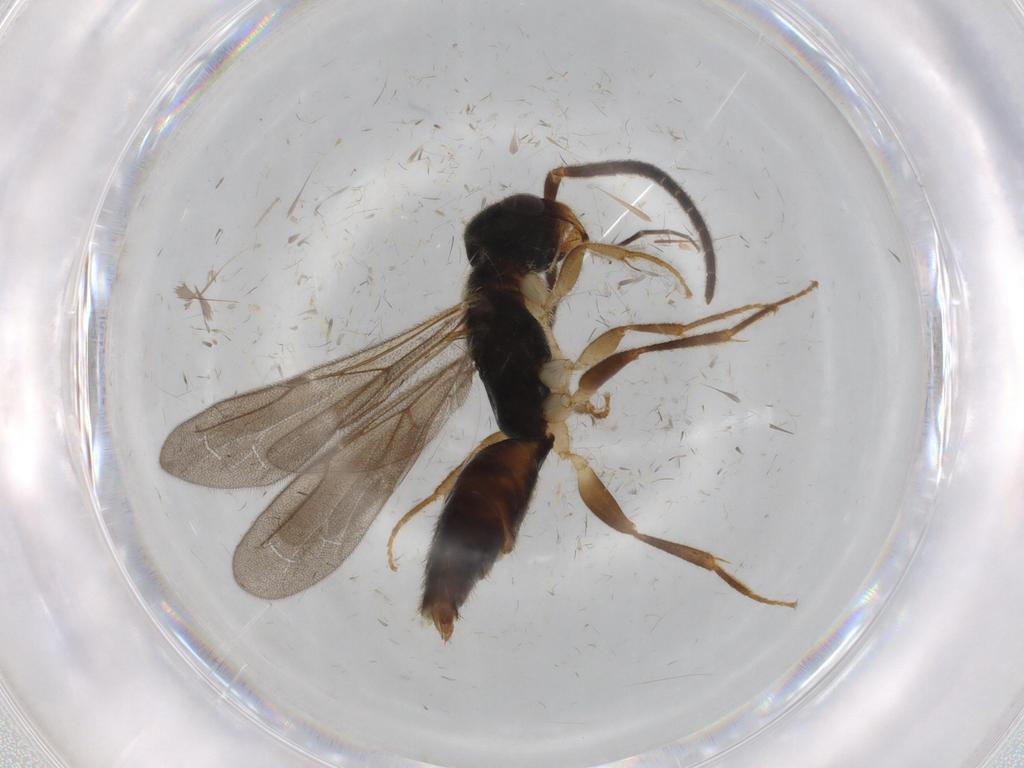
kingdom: Animalia
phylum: Arthropoda
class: Insecta
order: Hymenoptera
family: Bethylidae
